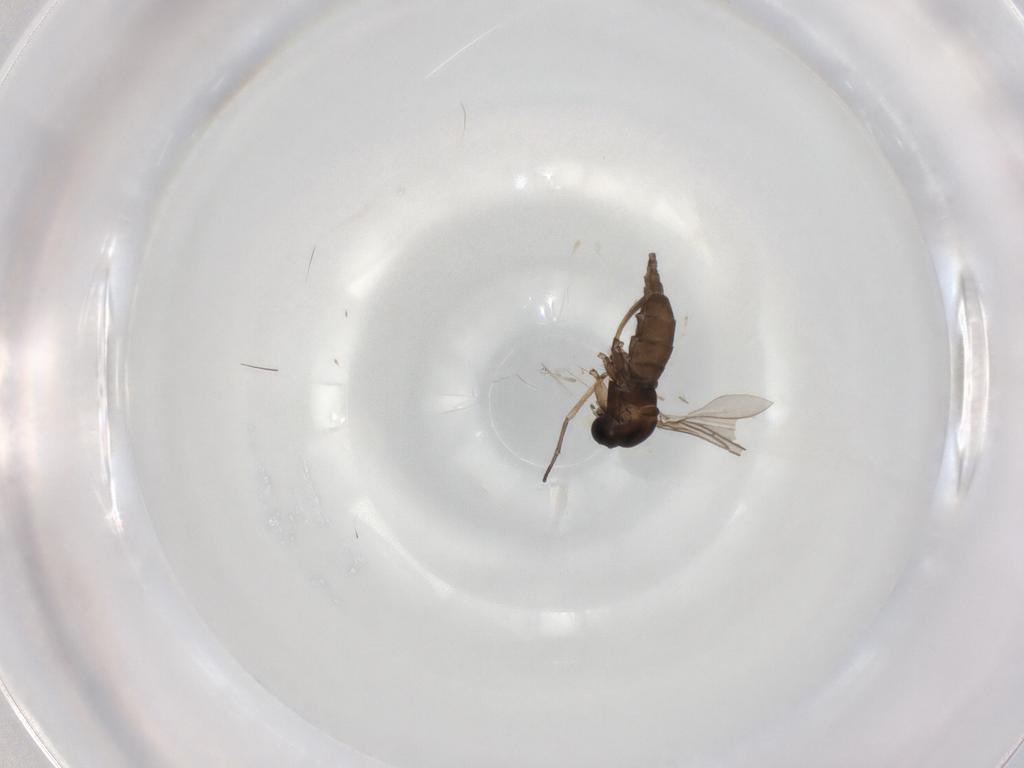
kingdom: Animalia
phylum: Arthropoda
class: Insecta
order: Diptera
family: Sciaridae
